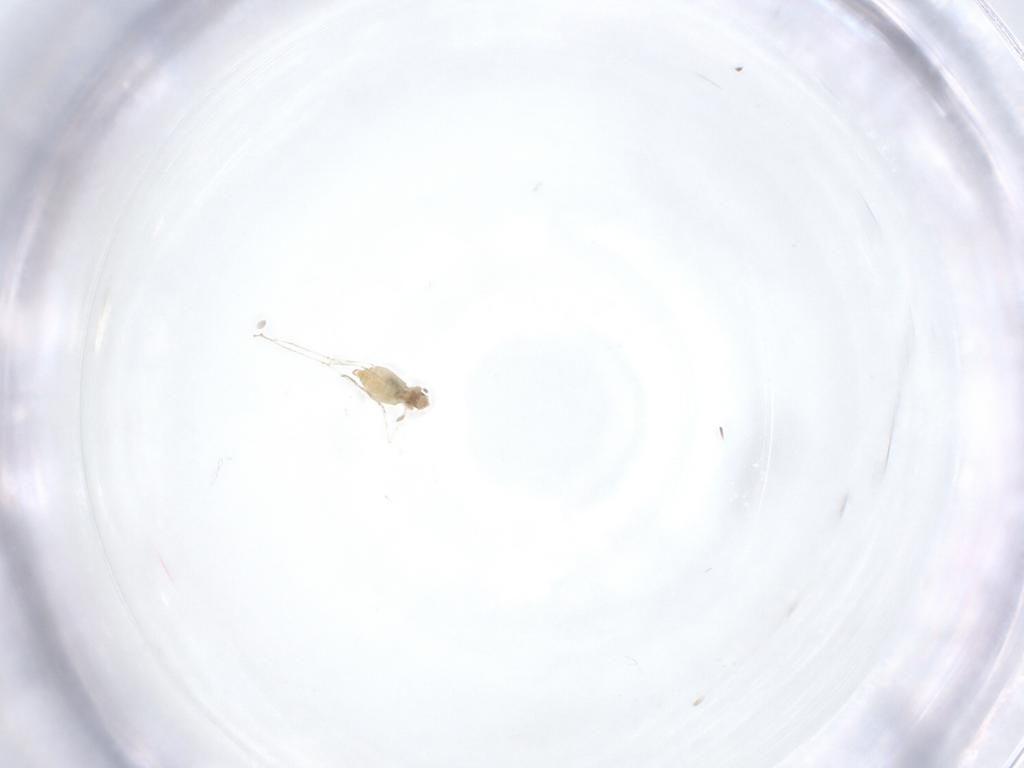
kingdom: Animalia
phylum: Arthropoda
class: Insecta
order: Diptera
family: Cecidomyiidae
